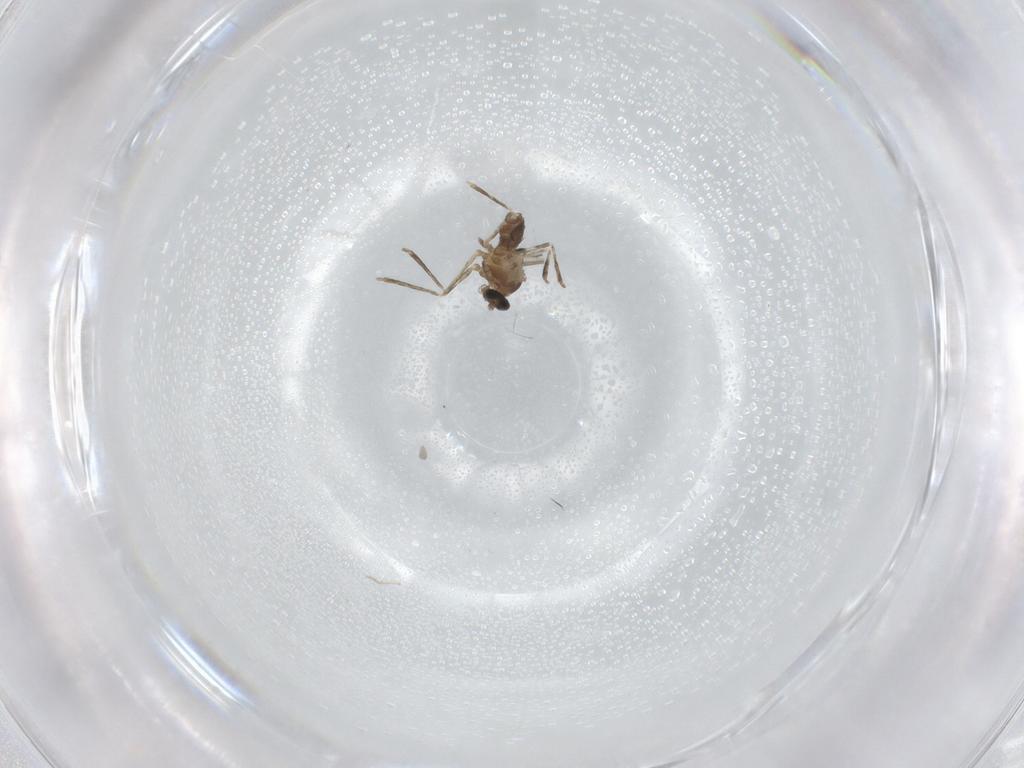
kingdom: Animalia
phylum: Arthropoda
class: Insecta
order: Diptera
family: Cecidomyiidae
